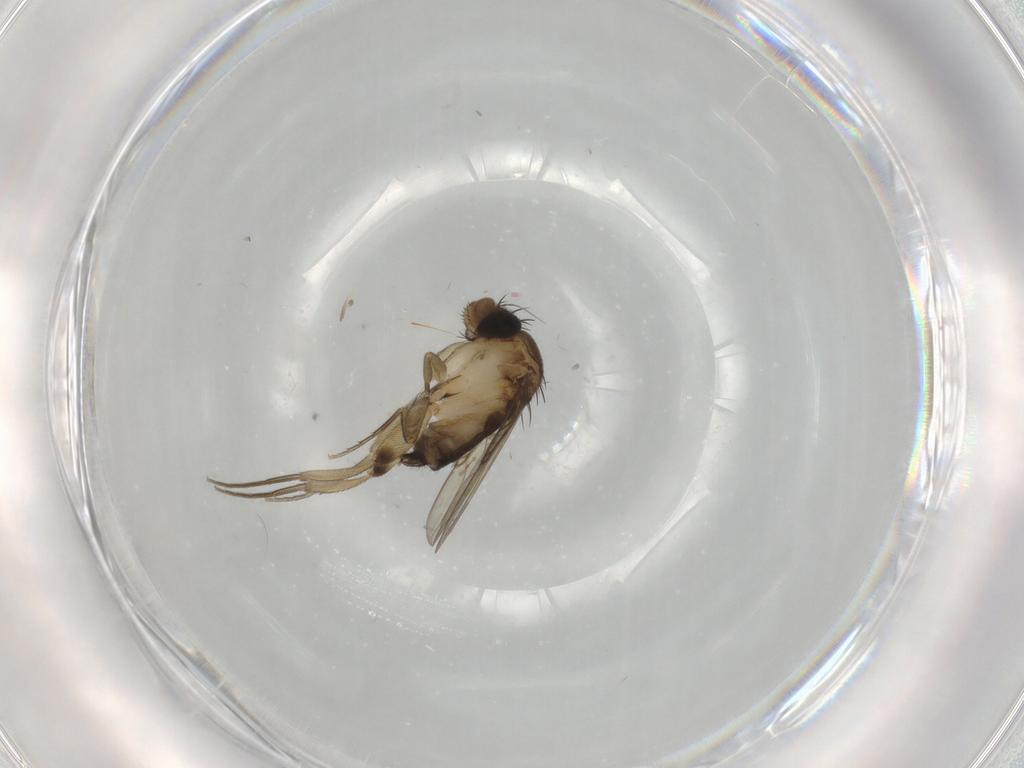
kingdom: Animalia
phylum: Arthropoda
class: Insecta
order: Diptera
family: Phoridae
